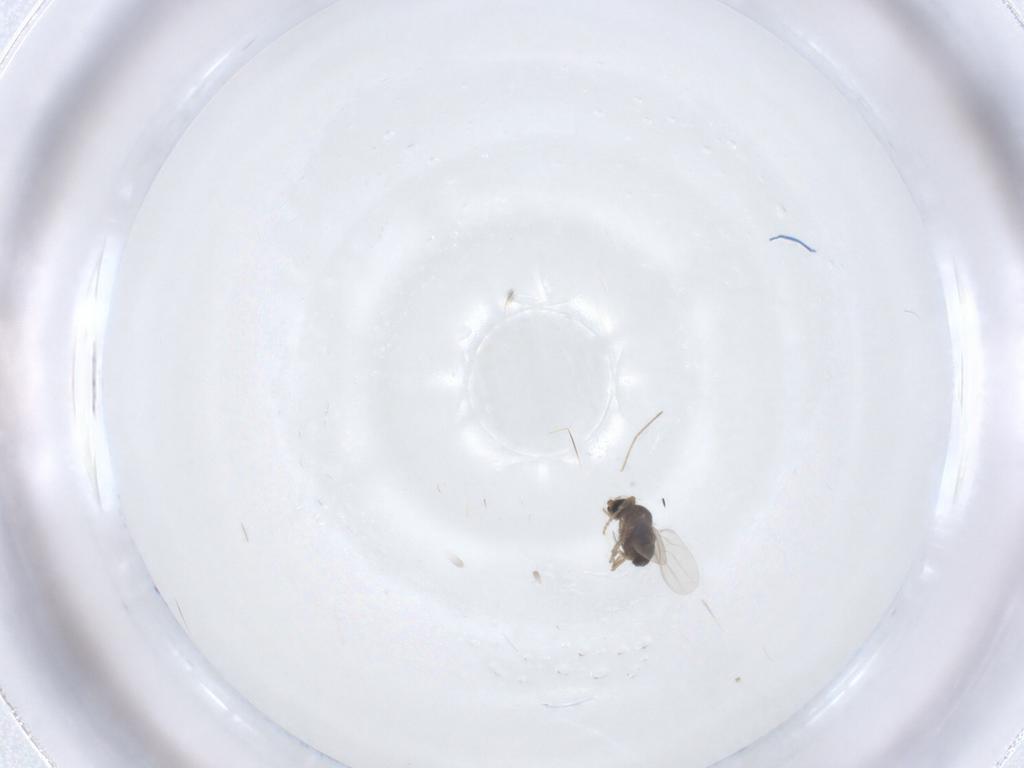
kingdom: Animalia
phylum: Arthropoda
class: Insecta
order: Diptera
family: Phoridae
